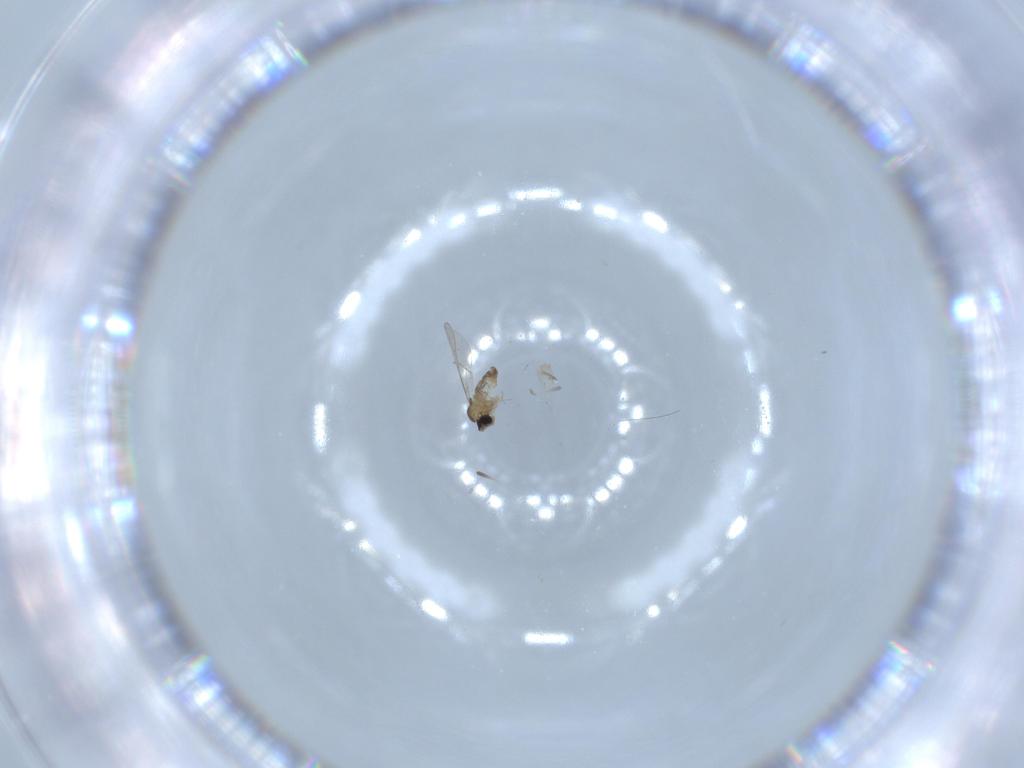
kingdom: Animalia
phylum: Arthropoda
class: Insecta
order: Diptera
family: Cecidomyiidae
